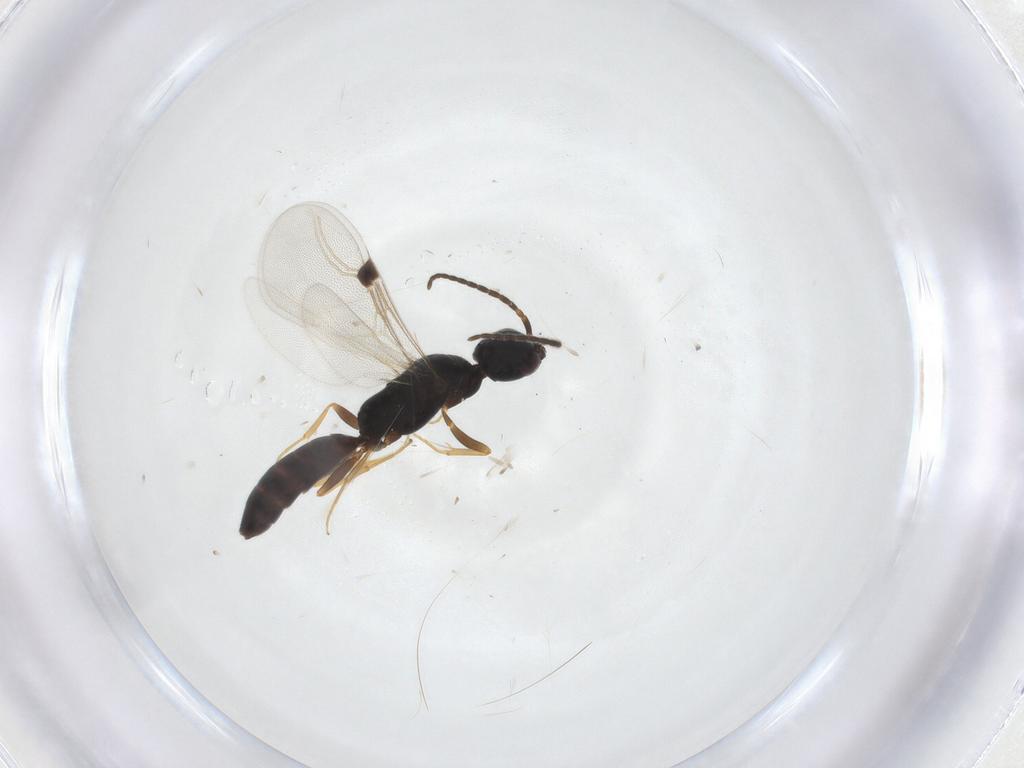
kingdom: Animalia
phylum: Arthropoda
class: Insecta
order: Hymenoptera
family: Bethylidae
